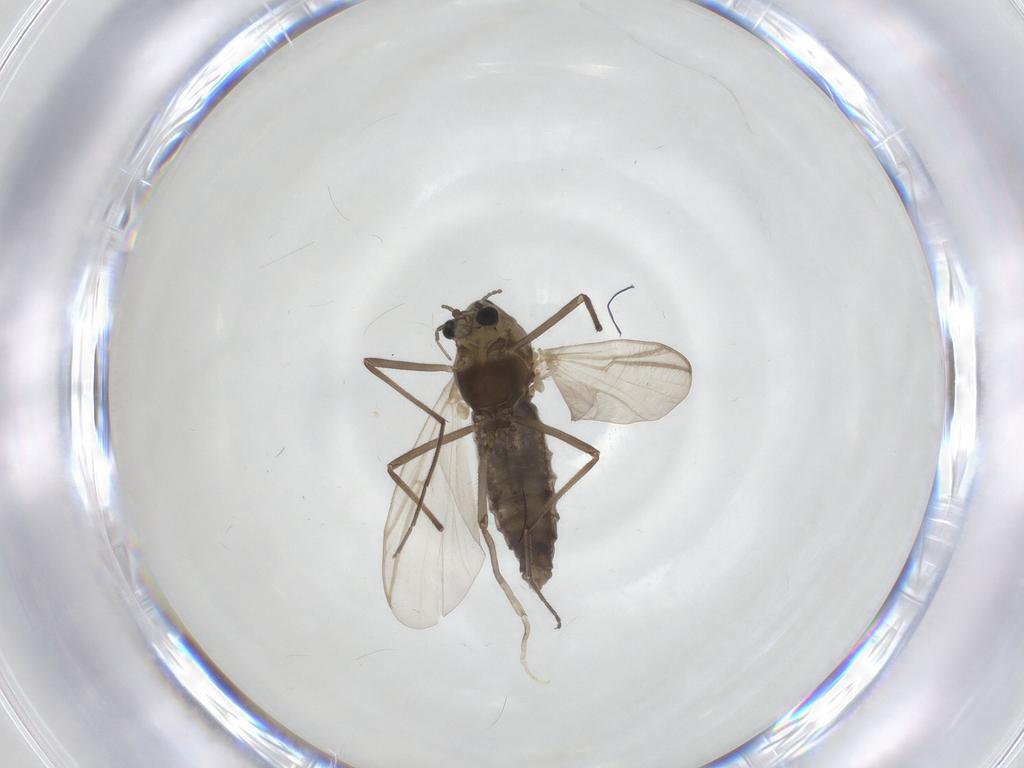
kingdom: Animalia
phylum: Arthropoda
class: Insecta
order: Diptera
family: Chironomidae
